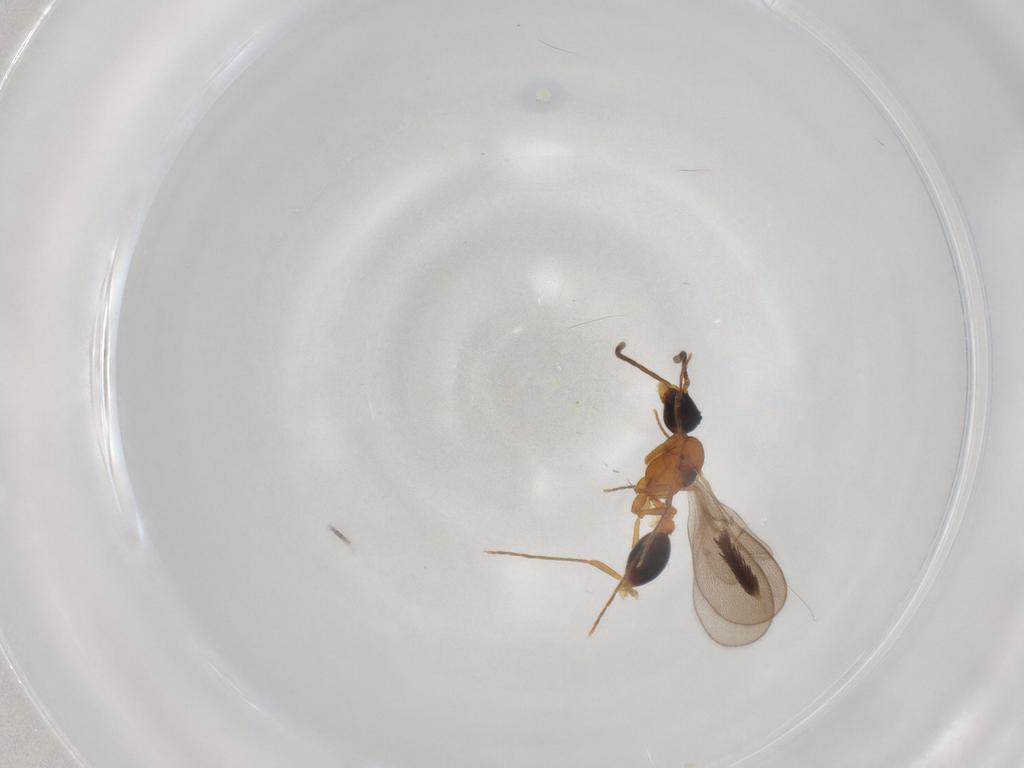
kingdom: Animalia
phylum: Arthropoda
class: Insecta
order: Hymenoptera
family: Formicidae
